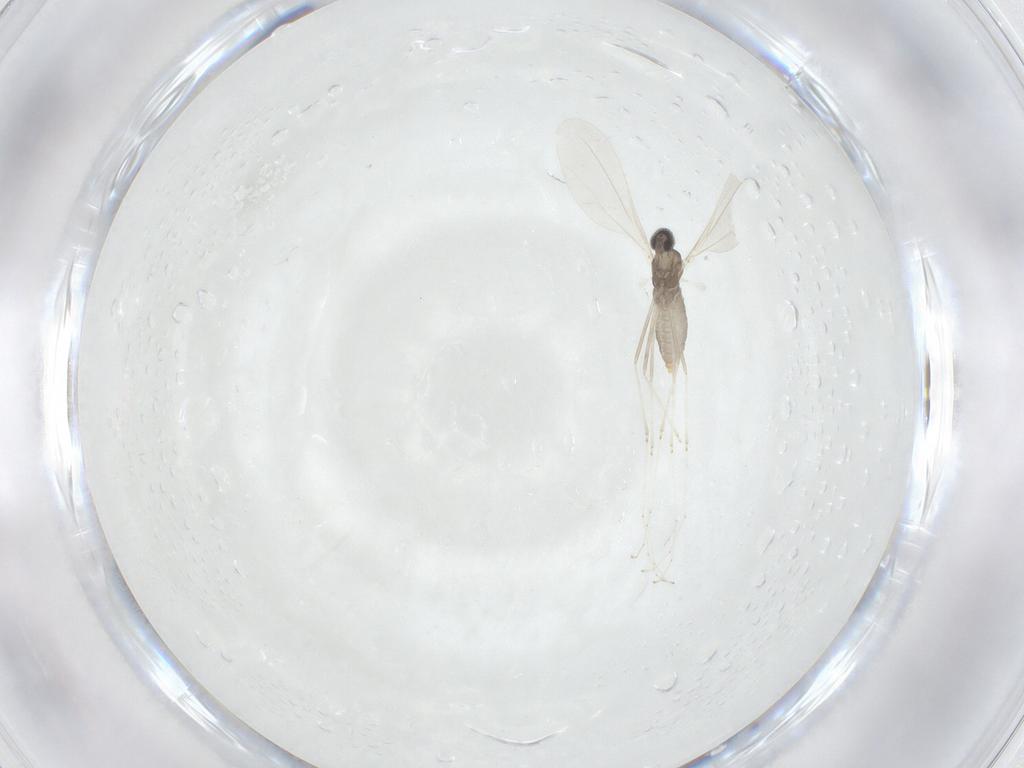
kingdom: Animalia
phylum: Arthropoda
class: Insecta
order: Diptera
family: Cecidomyiidae
